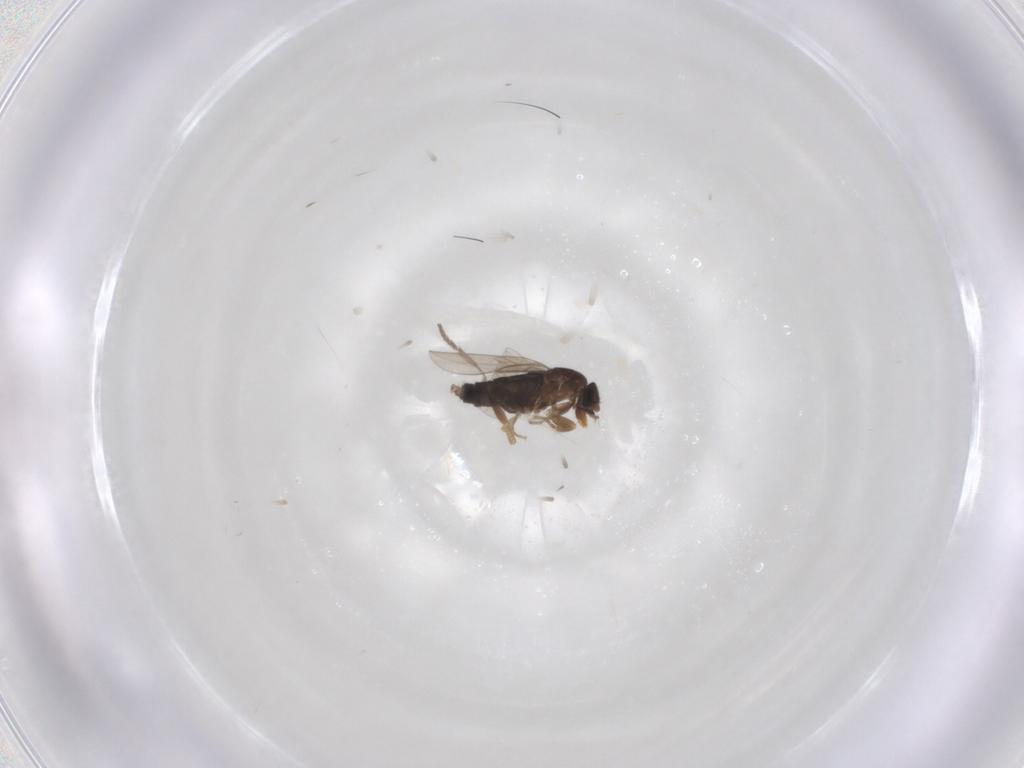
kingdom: Animalia
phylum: Arthropoda
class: Insecta
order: Diptera
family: Phoridae
